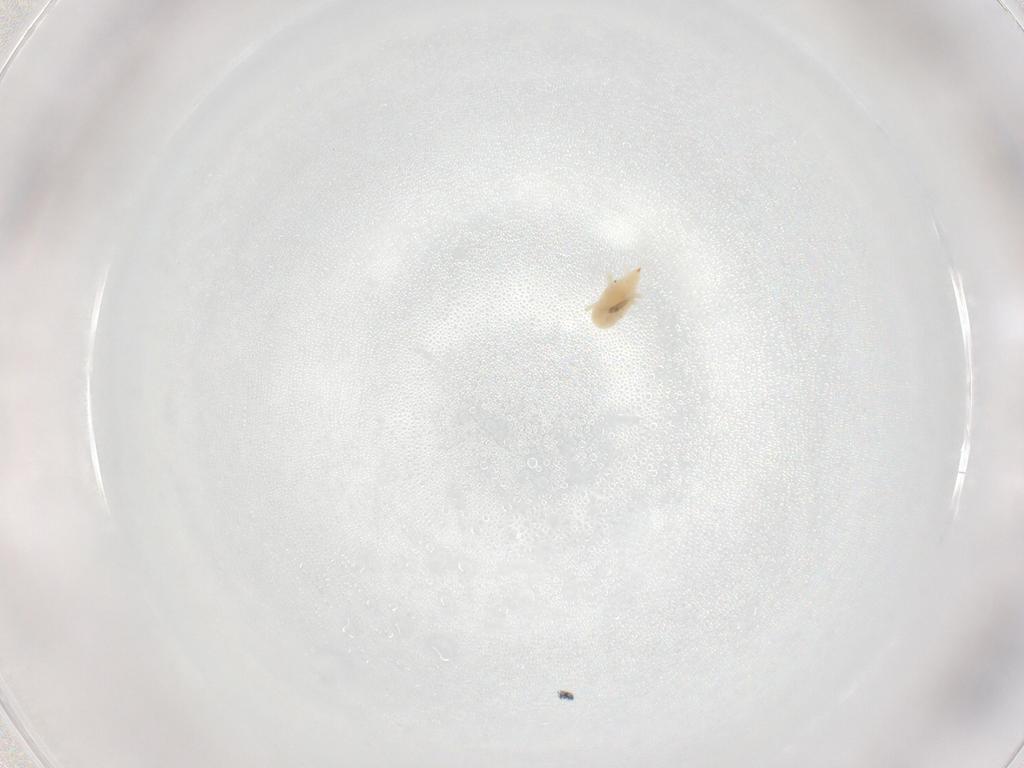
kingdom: Animalia
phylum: Arthropoda
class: Arachnida
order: Trombidiformes
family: Bdellidae
